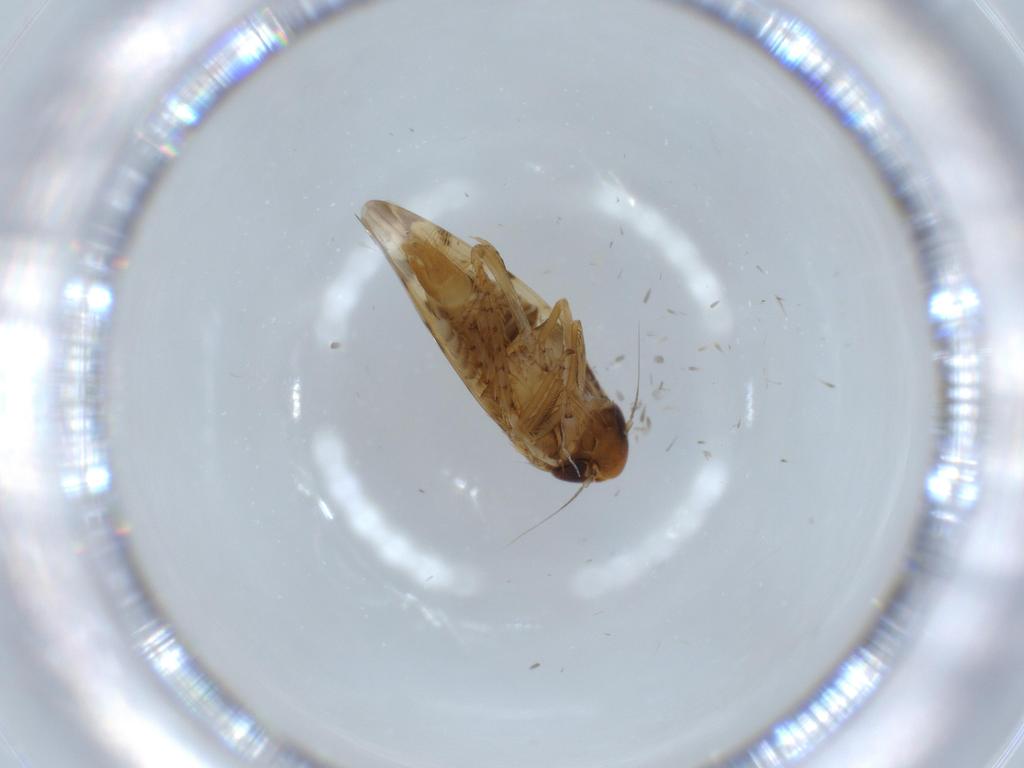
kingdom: Animalia
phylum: Arthropoda
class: Insecta
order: Hemiptera
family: Cicadellidae
